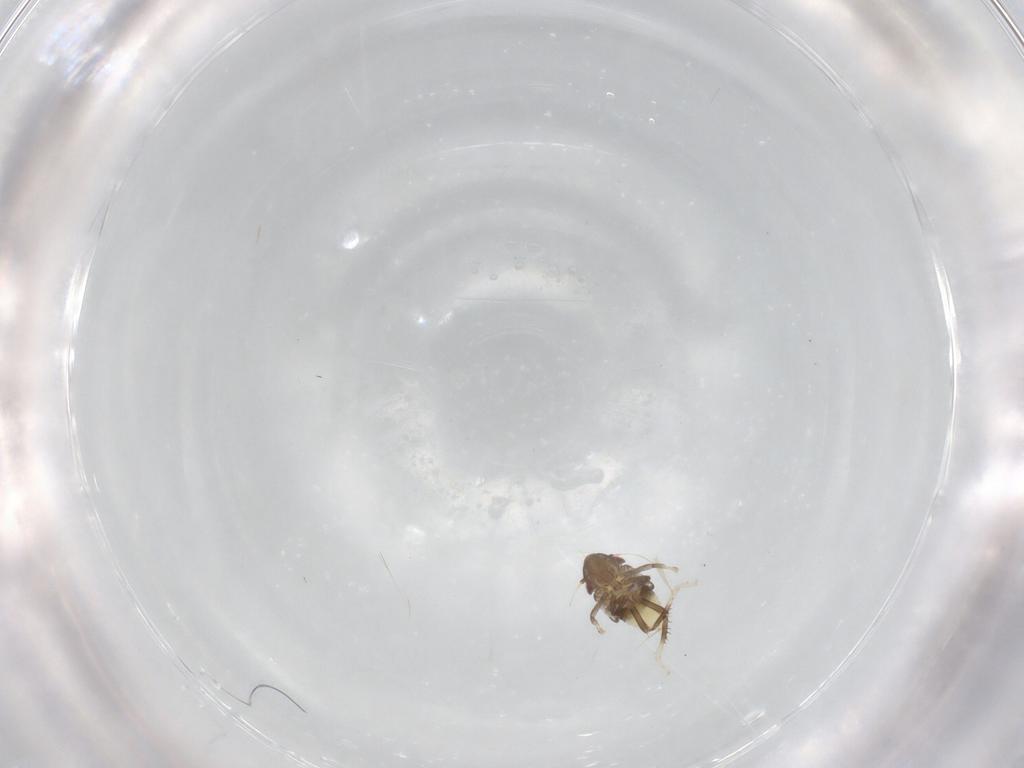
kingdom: Animalia
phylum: Arthropoda
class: Insecta
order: Hemiptera
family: Cicadellidae
